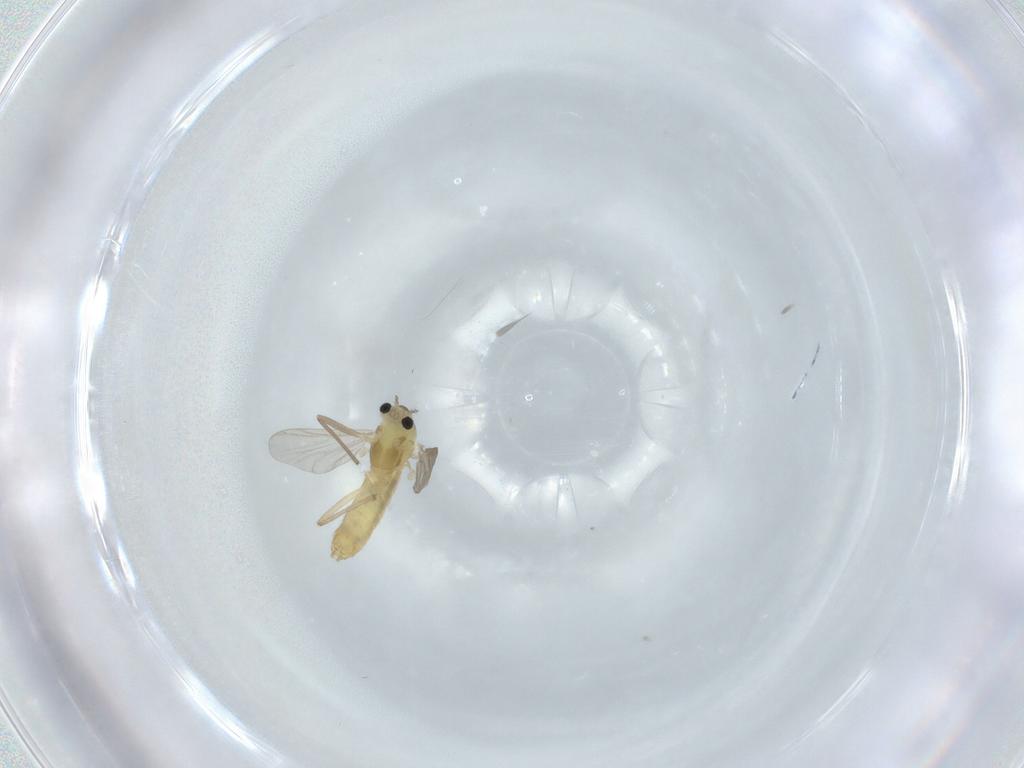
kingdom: Animalia
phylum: Arthropoda
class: Insecta
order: Diptera
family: Chironomidae
